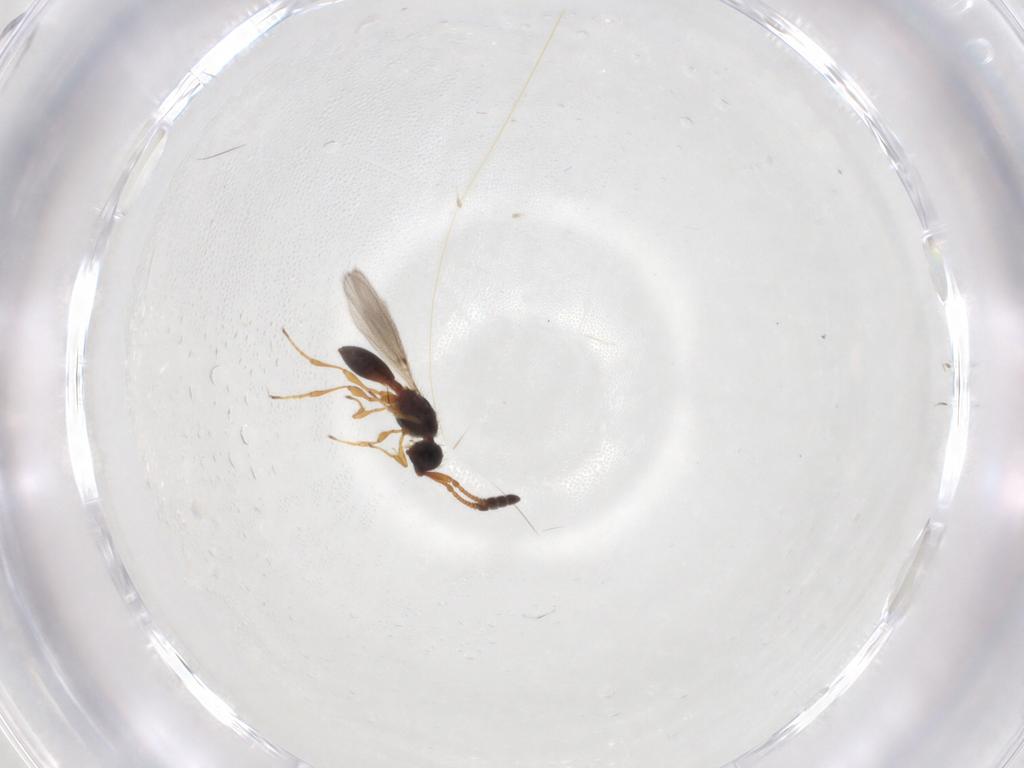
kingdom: Animalia
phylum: Arthropoda
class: Insecta
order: Hymenoptera
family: Diapriidae
